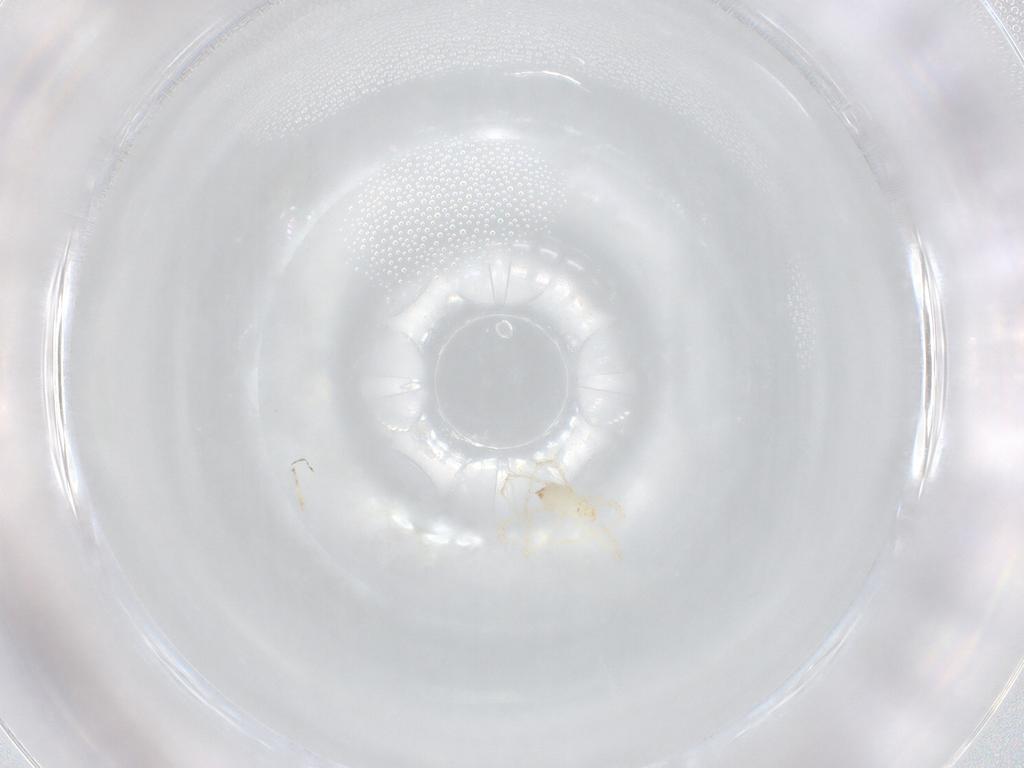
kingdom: Animalia
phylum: Arthropoda
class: Arachnida
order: Trombidiformes
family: Erythraeidae
